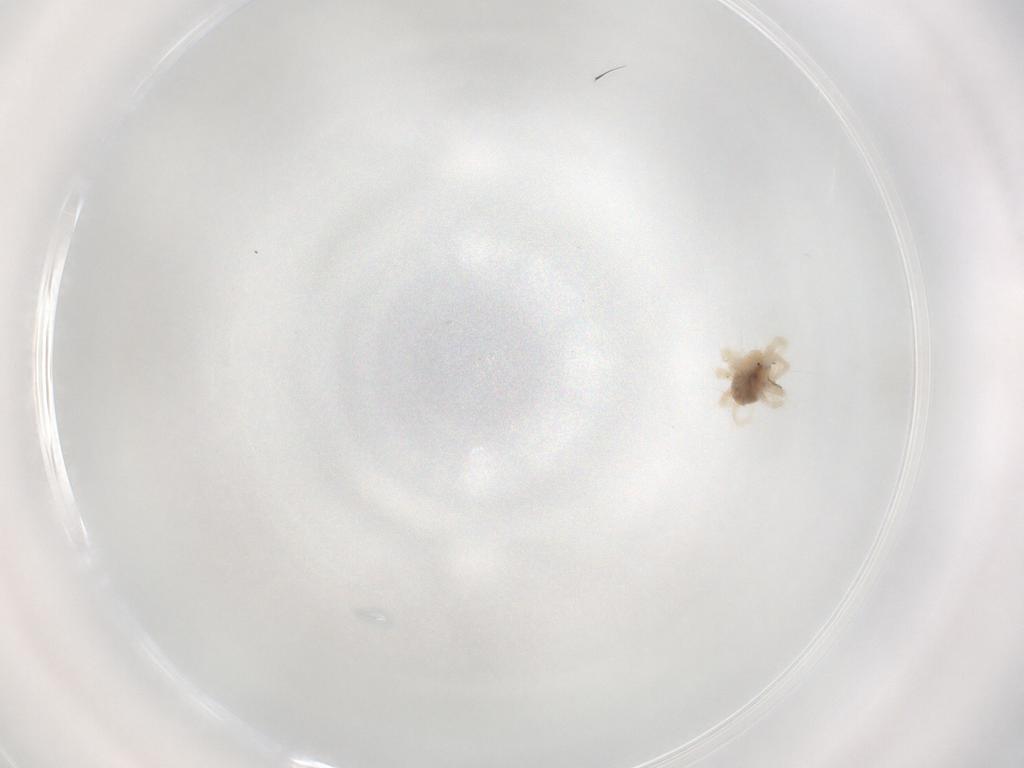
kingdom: Animalia
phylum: Arthropoda
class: Arachnida
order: Trombidiformes
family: Anystidae
